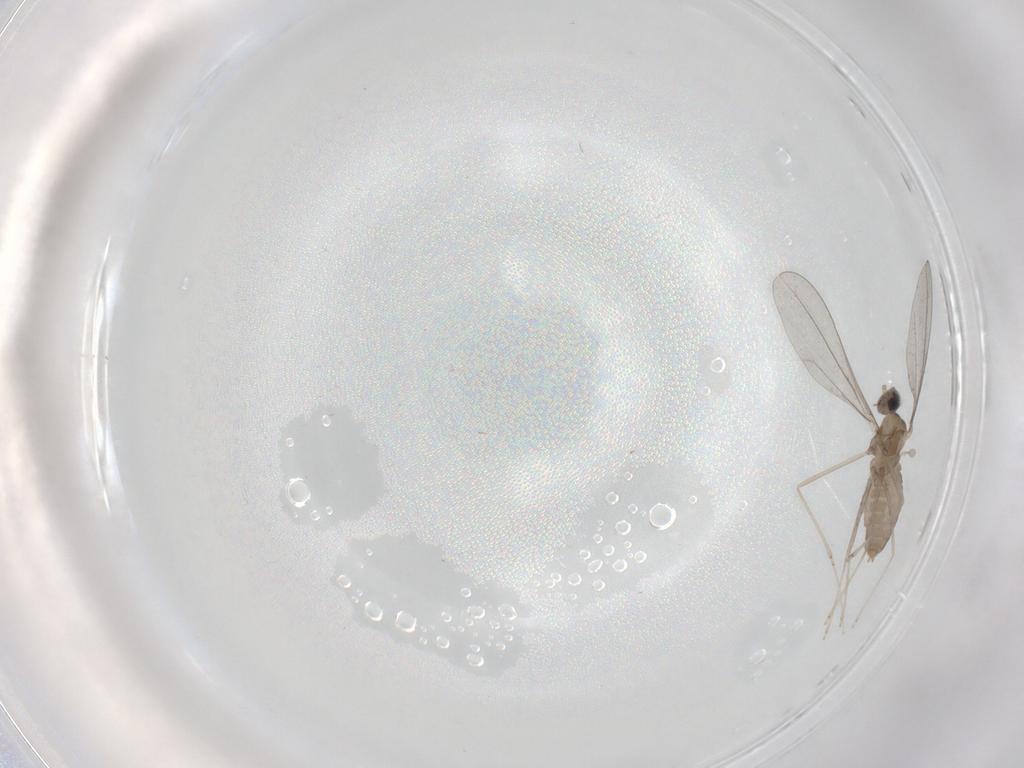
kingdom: Animalia
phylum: Arthropoda
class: Insecta
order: Diptera
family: Cecidomyiidae
